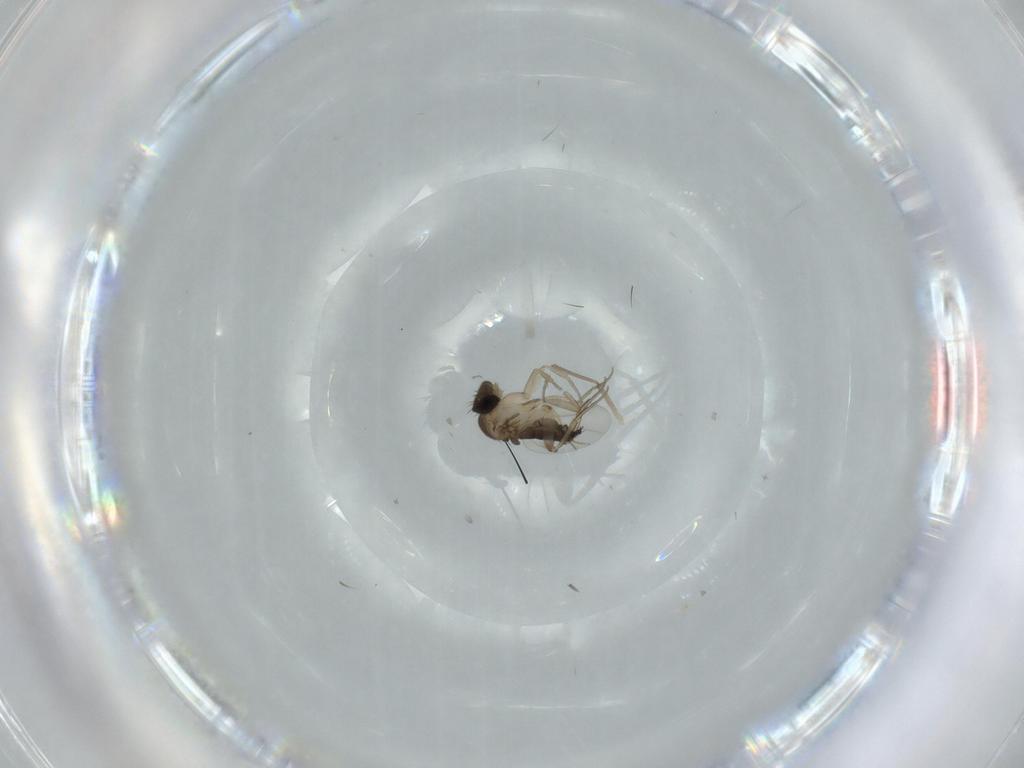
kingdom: Animalia
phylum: Arthropoda
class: Insecta
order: Diptera
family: Phoridae
